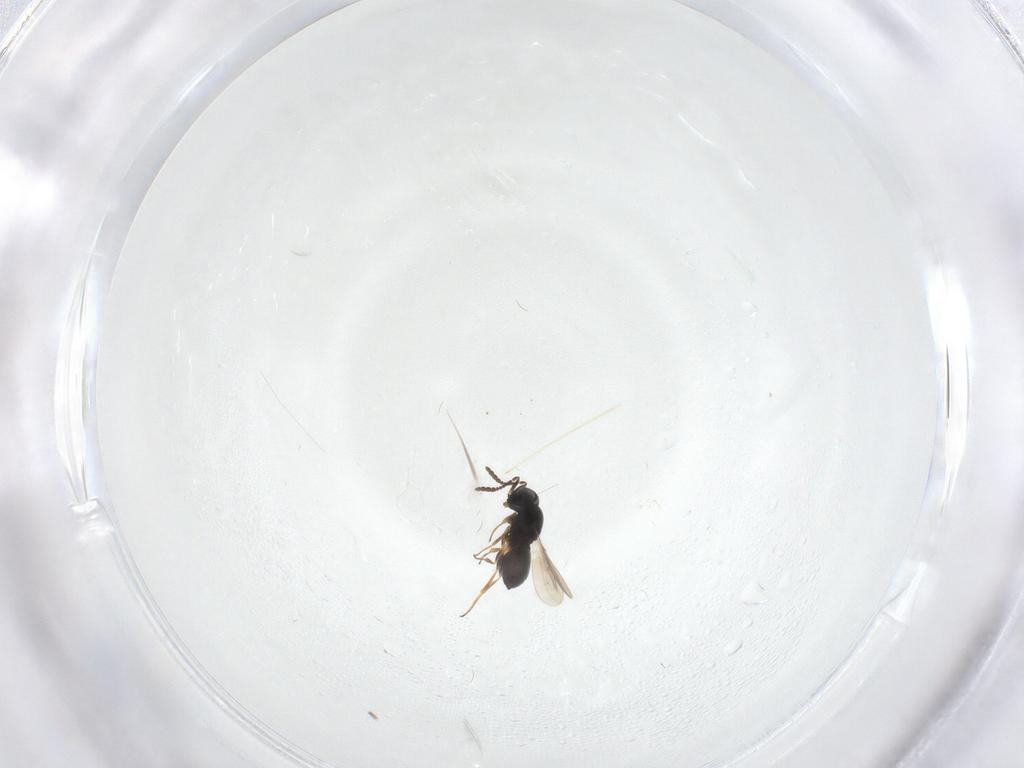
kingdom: Animalia
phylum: Arthropoda
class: Insecta
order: Hymenoptera
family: Scelionidae
